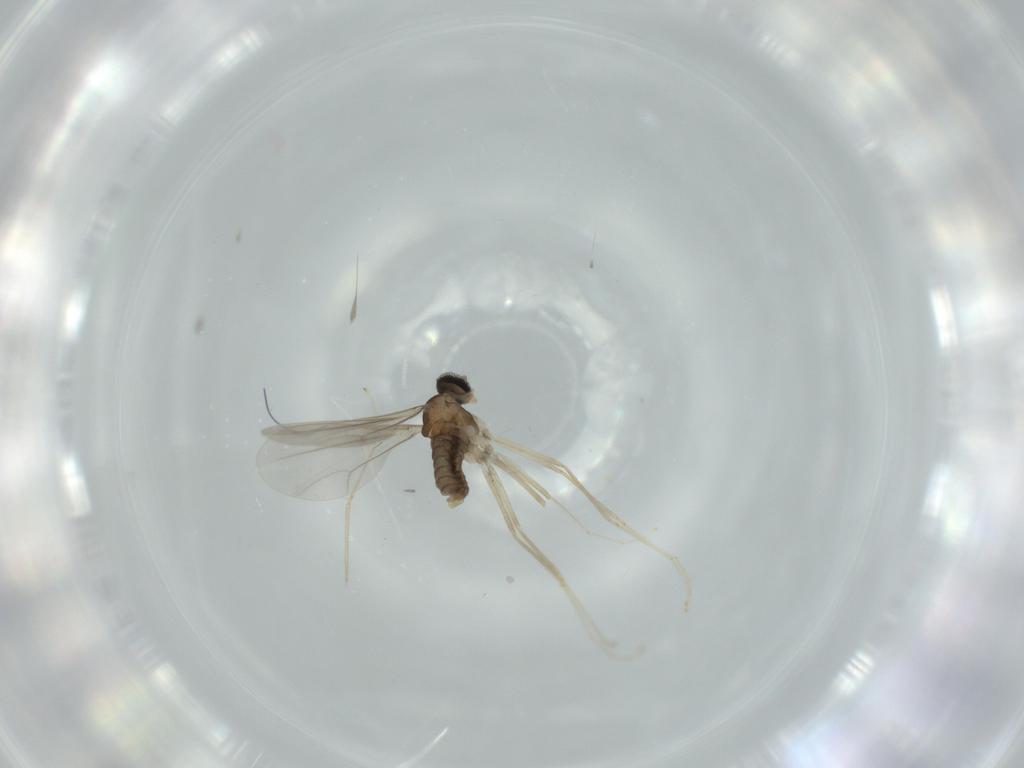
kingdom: Animalia
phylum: Arthropoda
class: Insecta
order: Diptera
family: Cecidomyiidae
